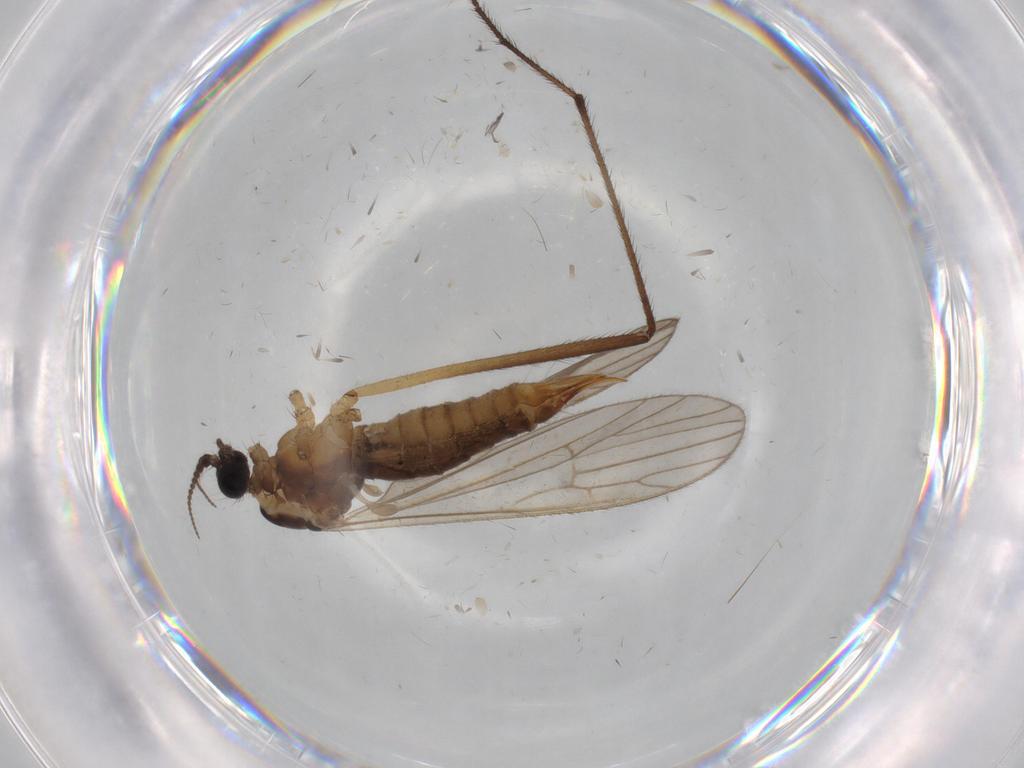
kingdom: Animalia
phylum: Arthropoda
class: Insecta
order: Diptera
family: Agromyzidae
